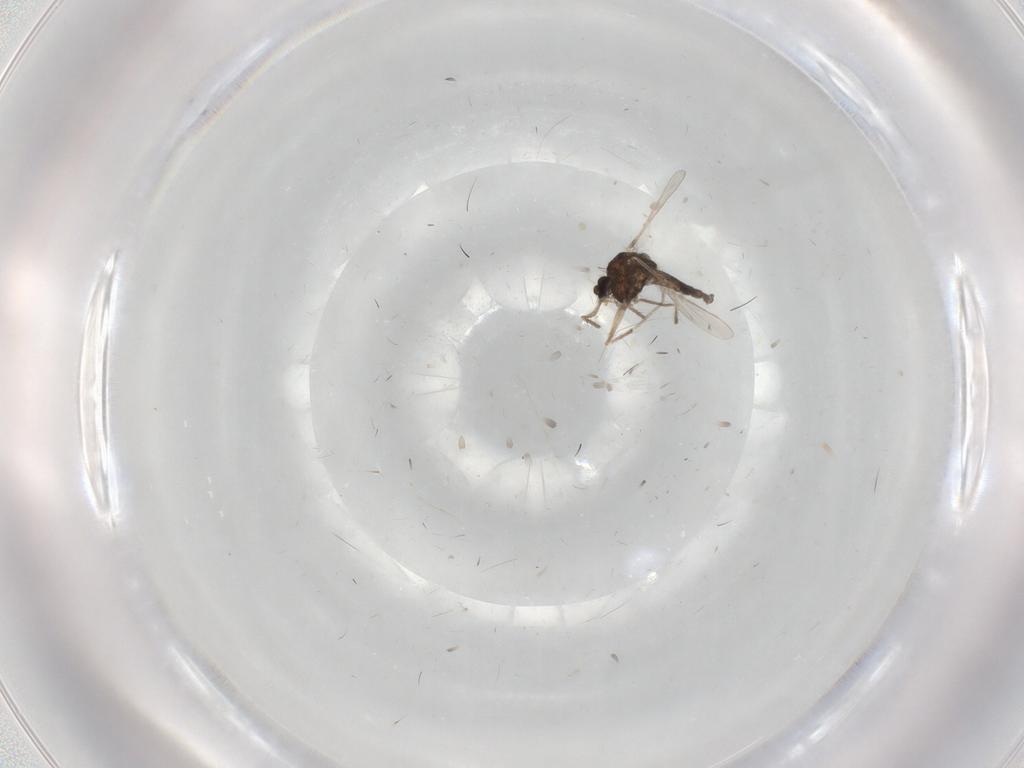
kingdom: Animalia
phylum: Arthropoda
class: Insecta
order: Diptera
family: Chironomidae
